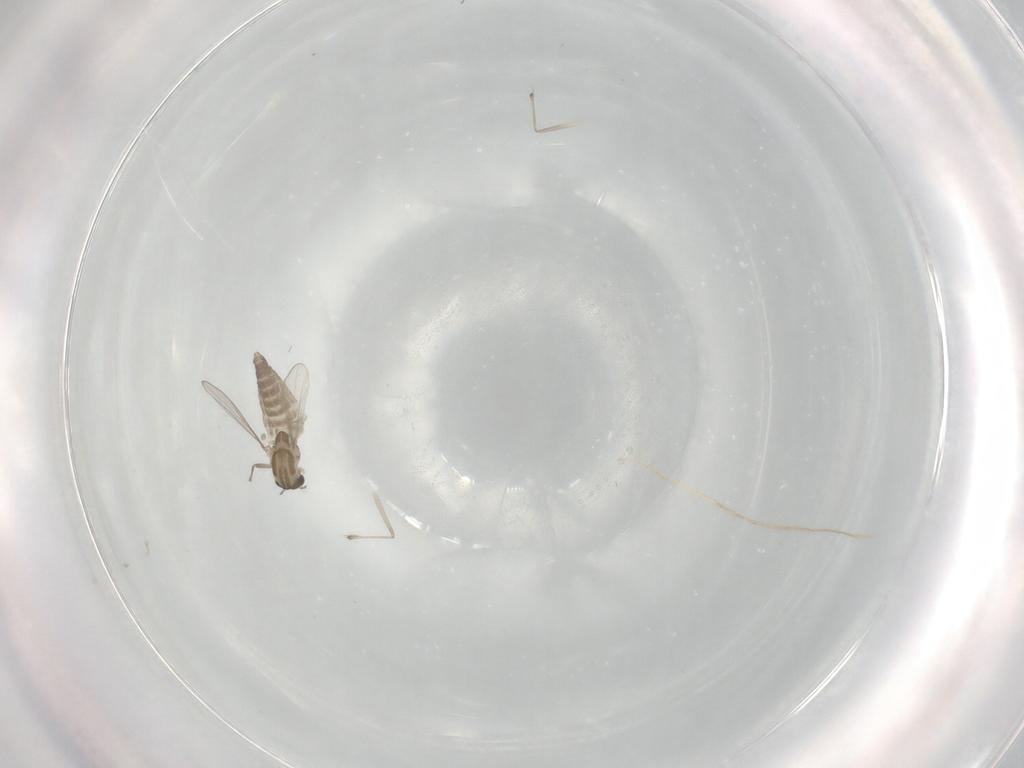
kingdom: Animalia
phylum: Arthropoda
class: Insecta
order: Diptera
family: Chironomidae
